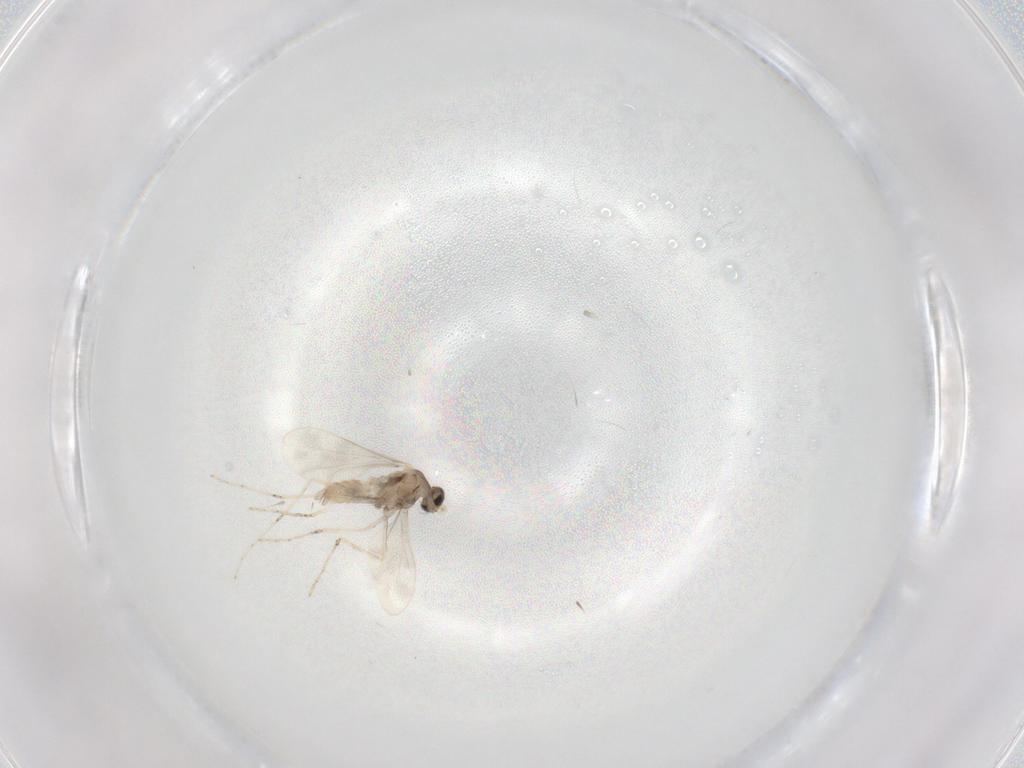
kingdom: Animalia
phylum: Arthropoda
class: Insecta
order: Diptera
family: Cecidomyiidae
